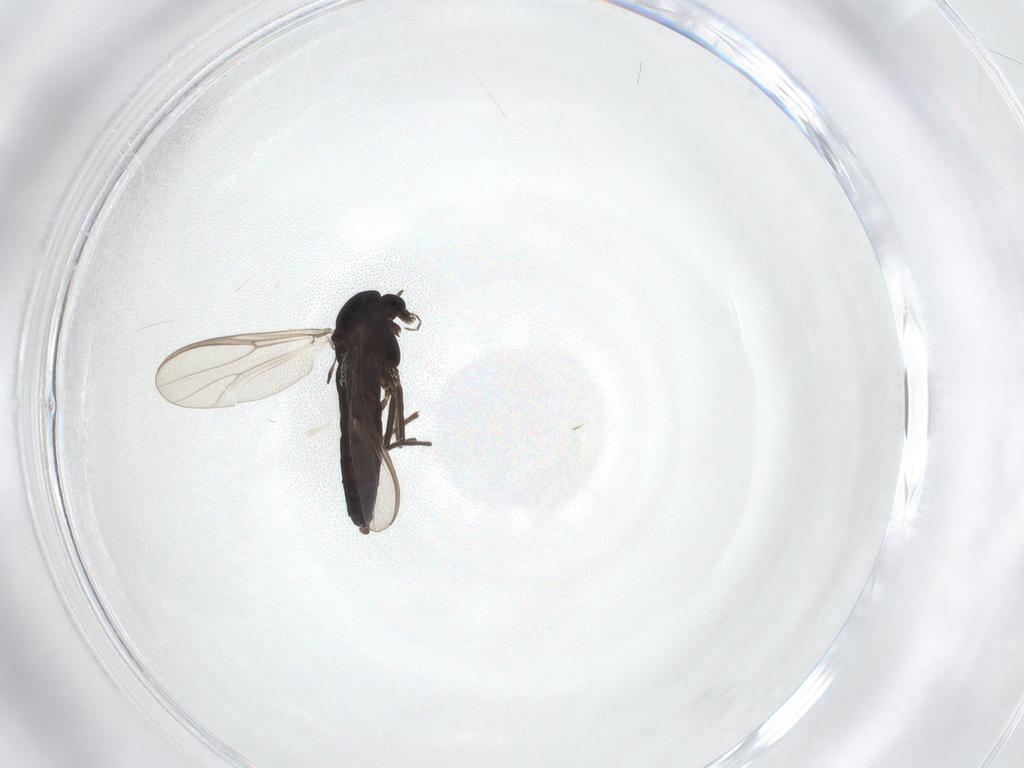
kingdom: Animalia
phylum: Arthropoda
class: Insecta
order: Diptera
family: Chironomidae
